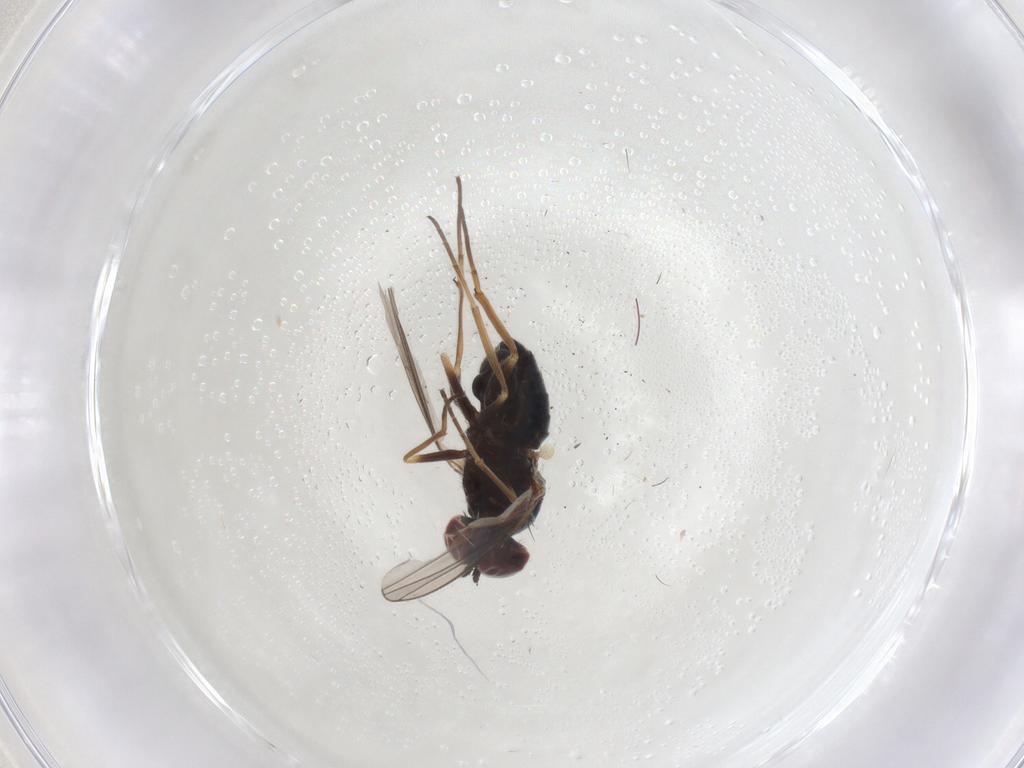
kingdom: Animalia
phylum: Arthropoda
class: Insecta
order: Diptera
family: Dolichopodidae
